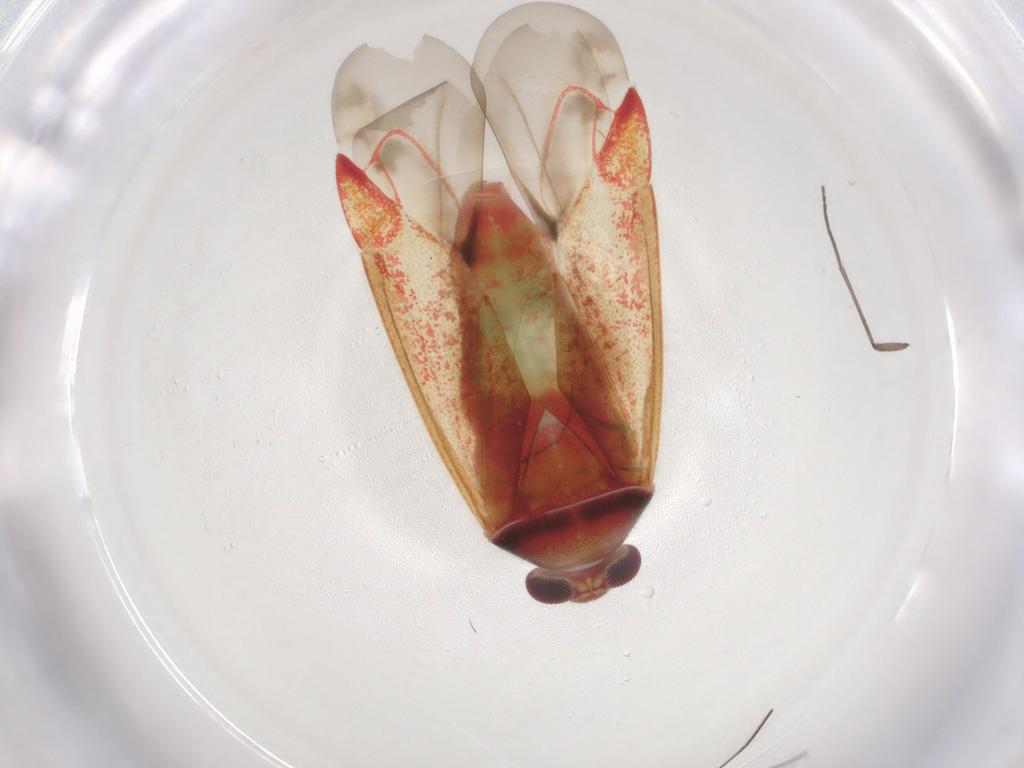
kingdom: Animalia
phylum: Arthropoda
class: Insecta
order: Hemiptera
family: Miridae
